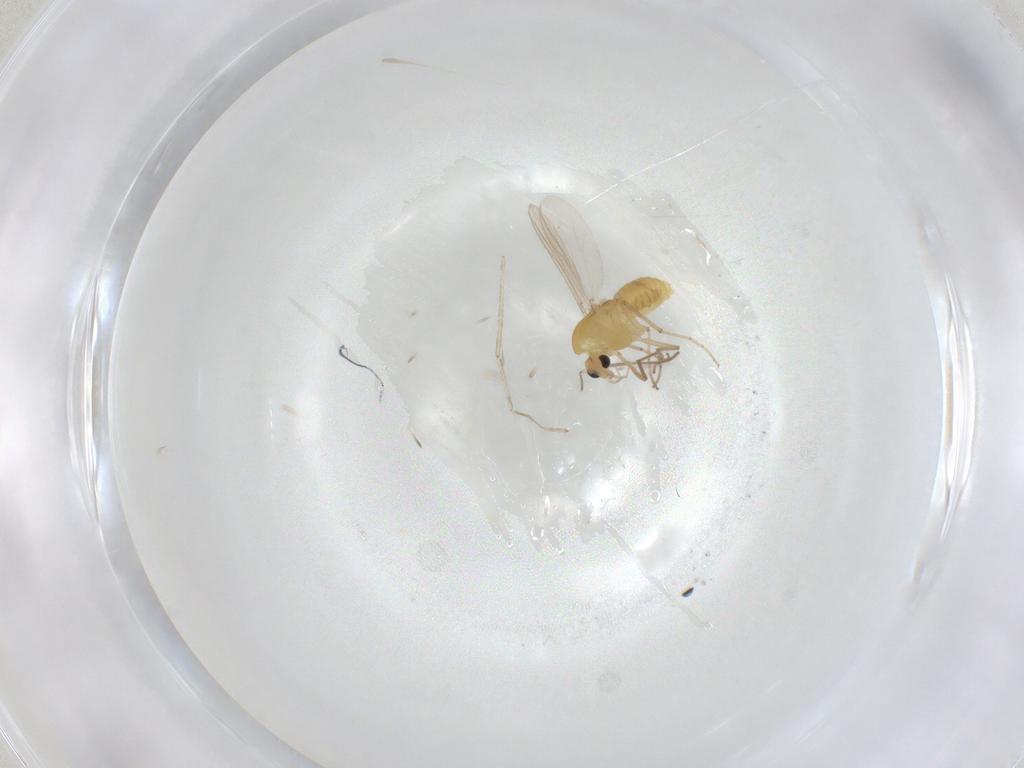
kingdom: Animalia
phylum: Arthropoda
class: Insecta
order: Diptera
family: Chironomidae
